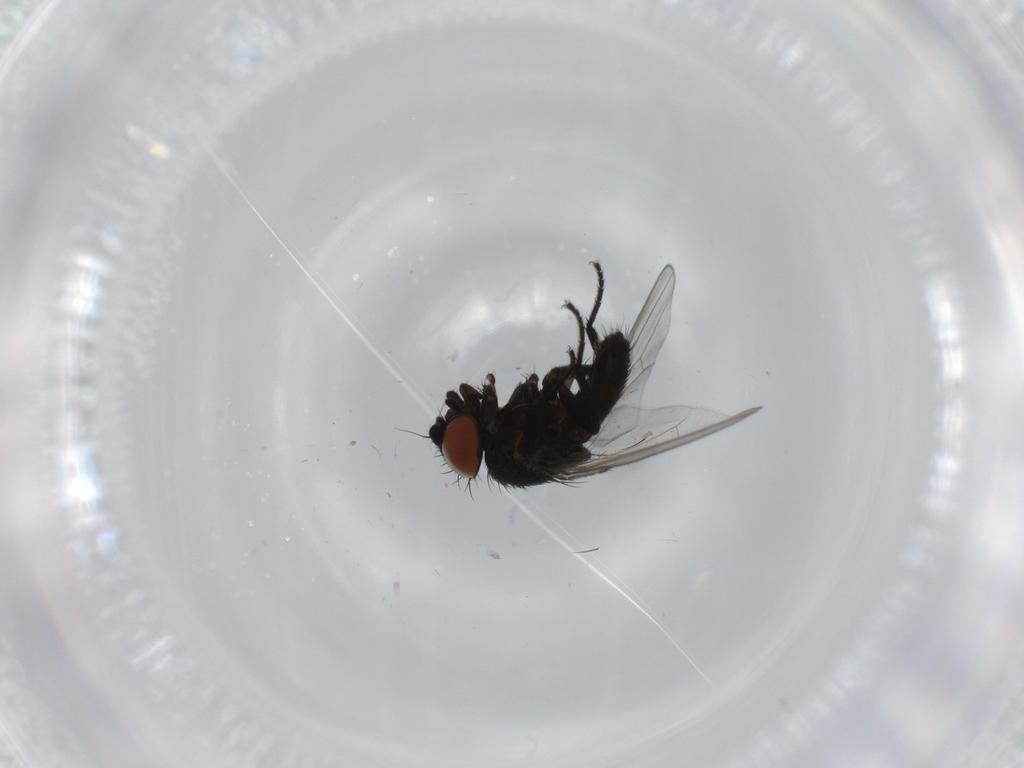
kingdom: Animalia
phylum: Arthropoda
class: Insecta
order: Diptera
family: Milichiidae
